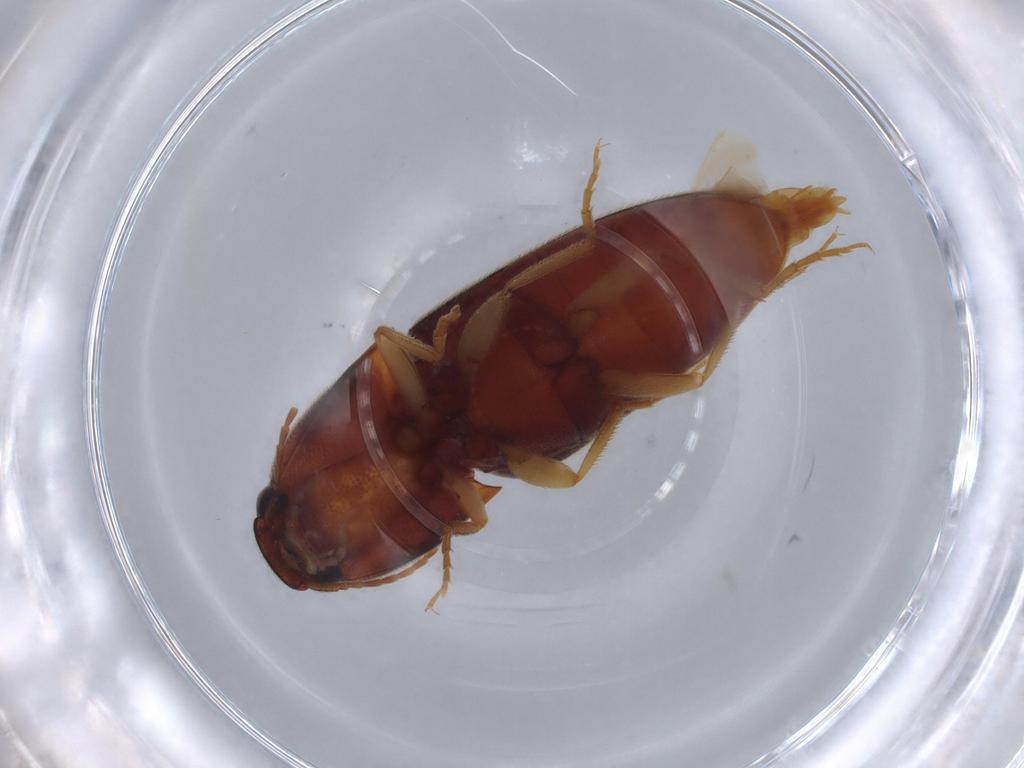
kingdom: Animalia
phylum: Arthropoda
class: Insecta
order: Coleoptera
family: Elateridae
